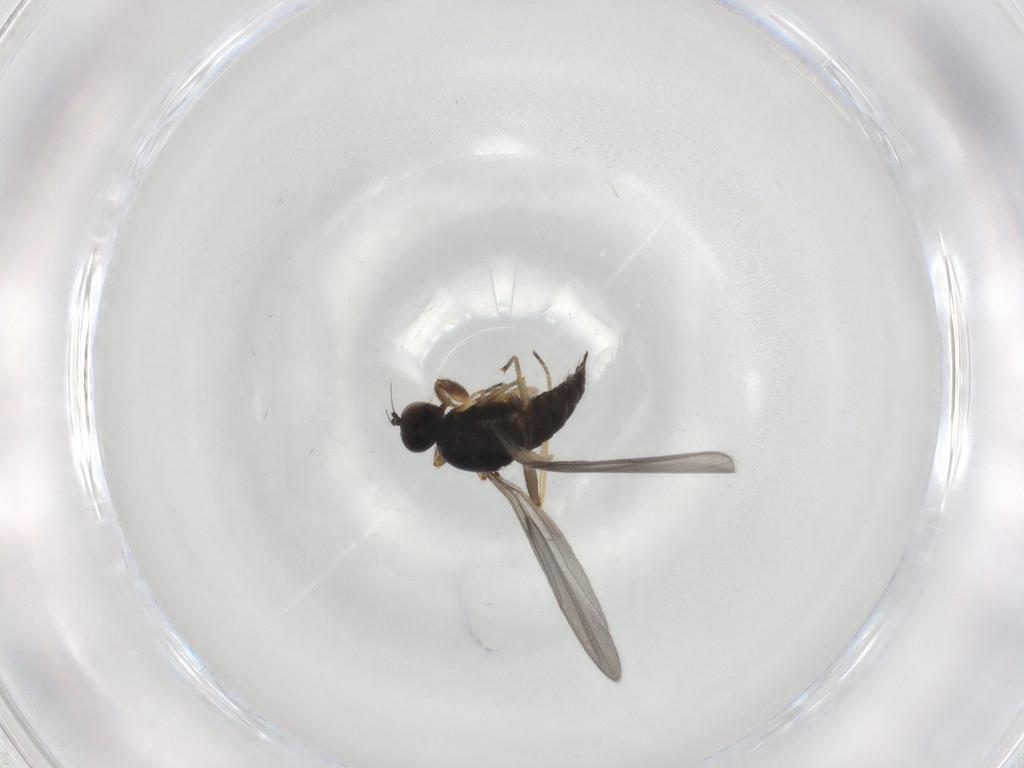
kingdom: Animalia
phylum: Arthropoda
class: Insecta
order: Diptera
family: Hybotidae
